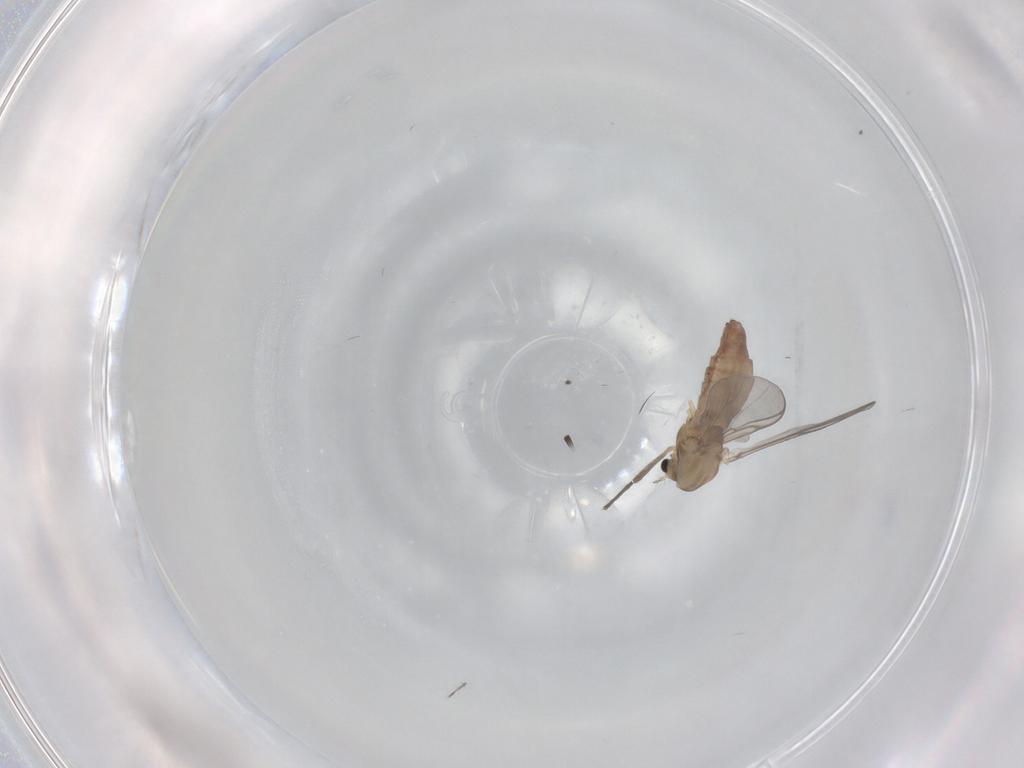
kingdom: Animalia
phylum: Arthropoda
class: Insecta
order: Diptera
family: Chironomidae
